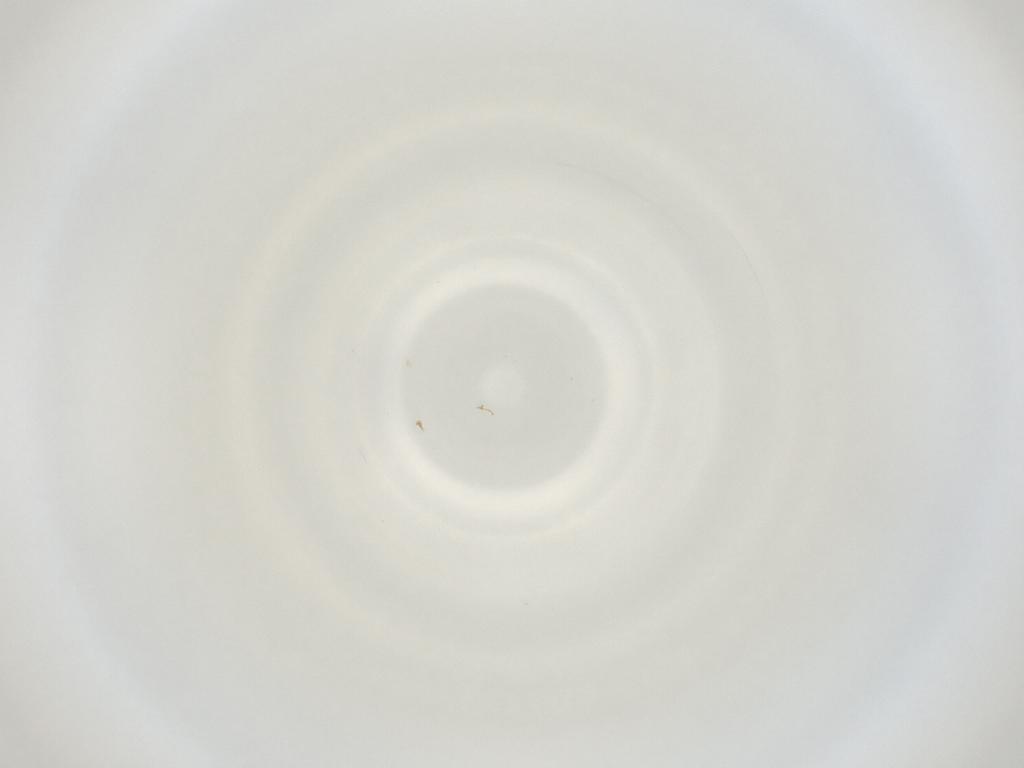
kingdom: Animalia
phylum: Arthropoda
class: Insecta
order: Diptera
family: Cecidomyiidae
